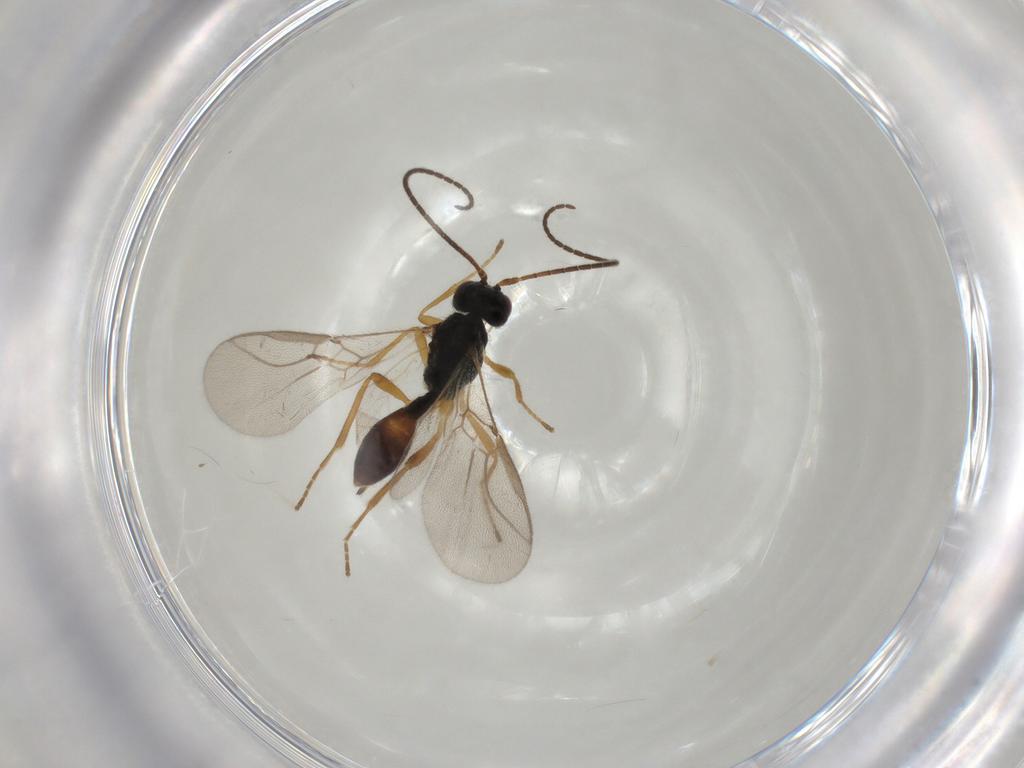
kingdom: Animalia
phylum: Arthropoda
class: Insecta
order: Hymenoptera
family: Braconidae
